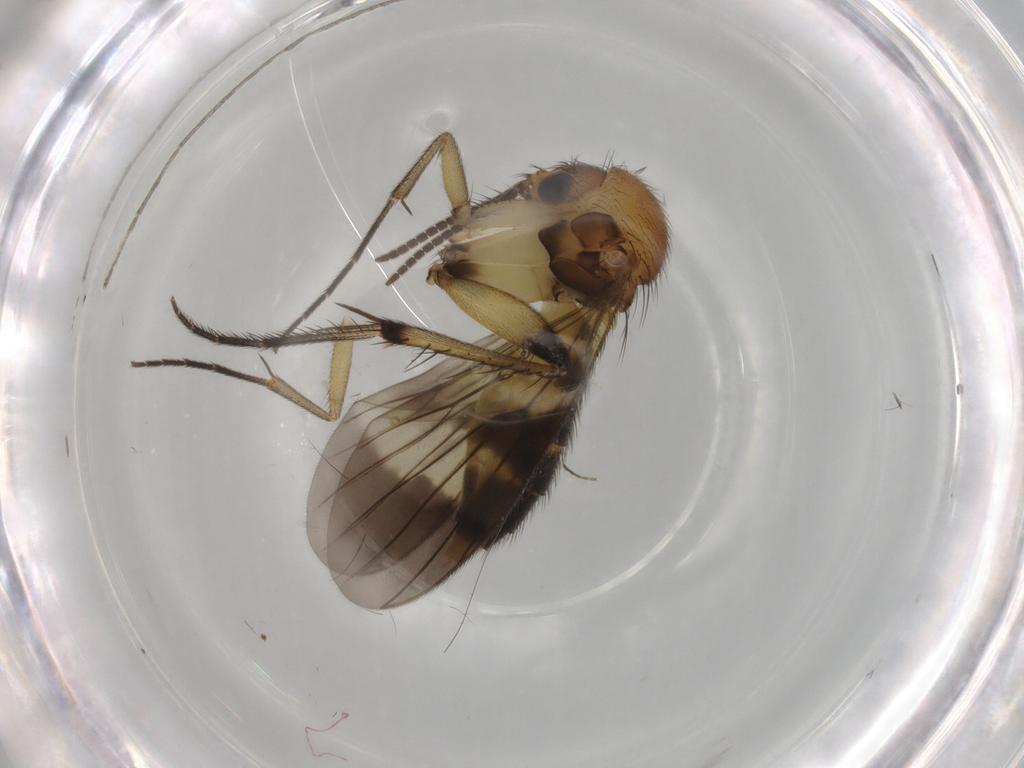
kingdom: Animalia
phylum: Arthropoda
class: Insecta
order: Diptera
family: Mycetophilidae
